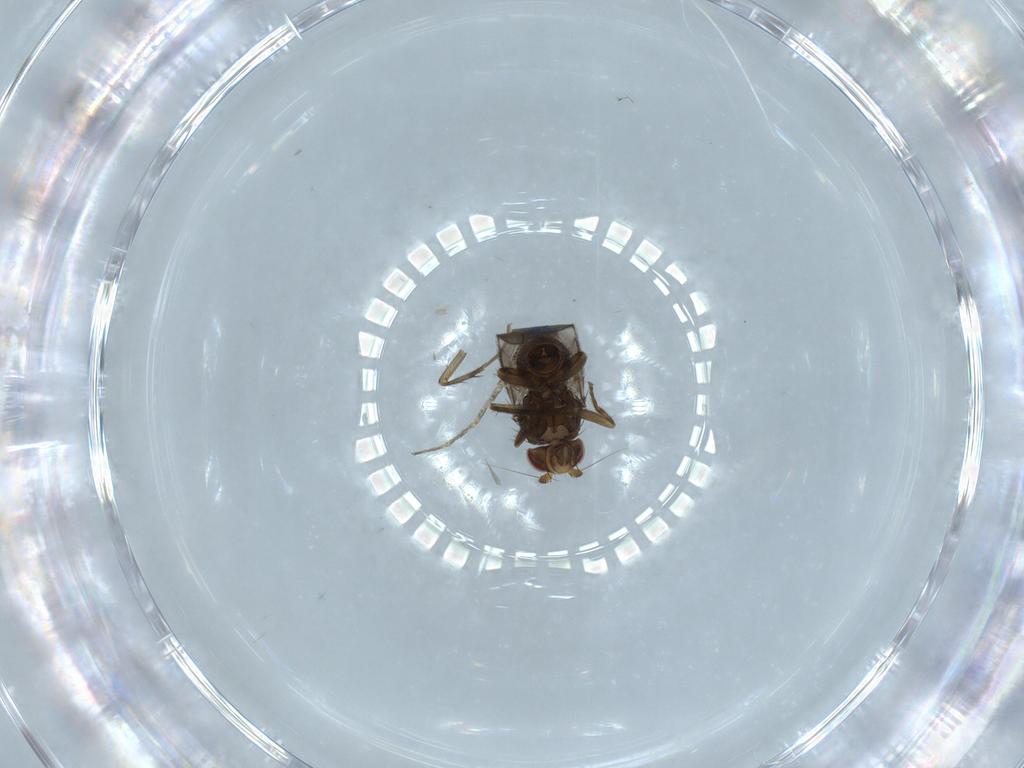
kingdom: Animalia
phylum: Arthropoda
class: Insecta
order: Diptera
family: Cecidomyiidae
